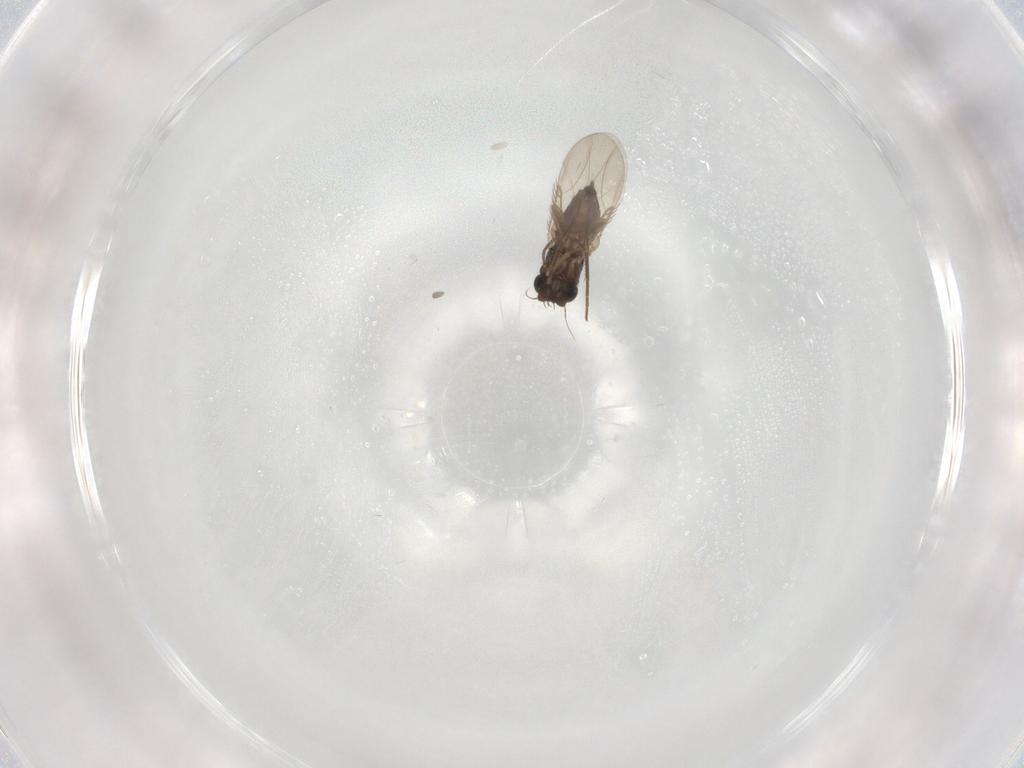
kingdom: Animalia
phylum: Arthropoda
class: Insecta
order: Diptera
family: Phoridae
